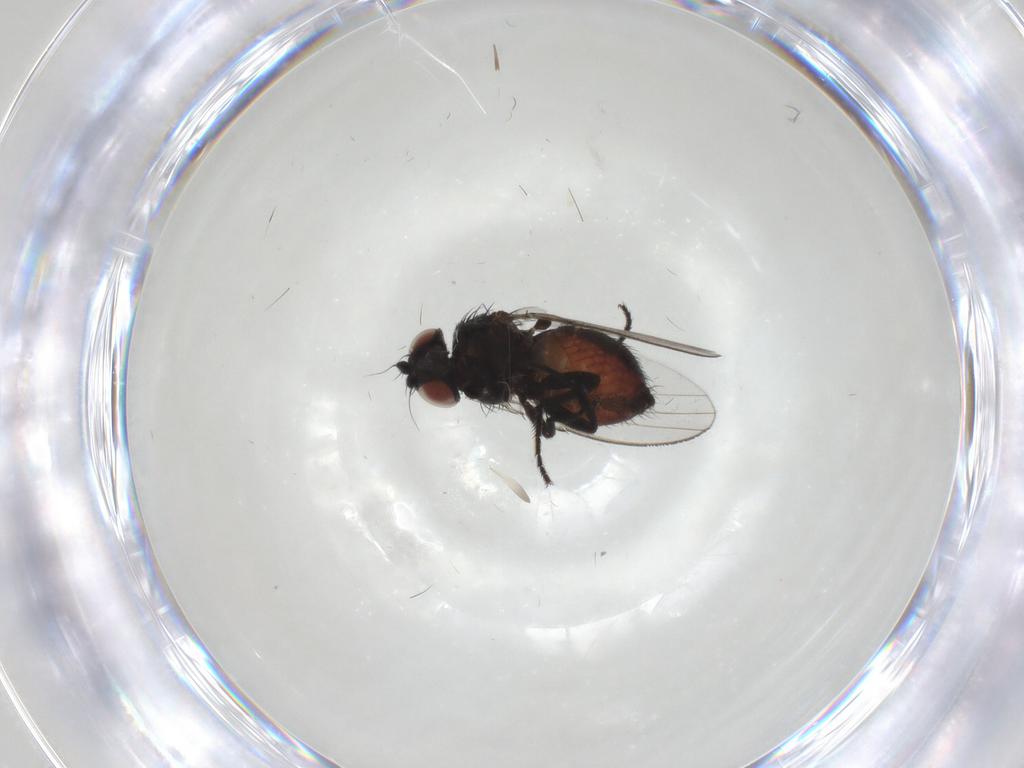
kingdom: Animalia
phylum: Arthropoda
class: Insecta
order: Diptera
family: Milichiidae
